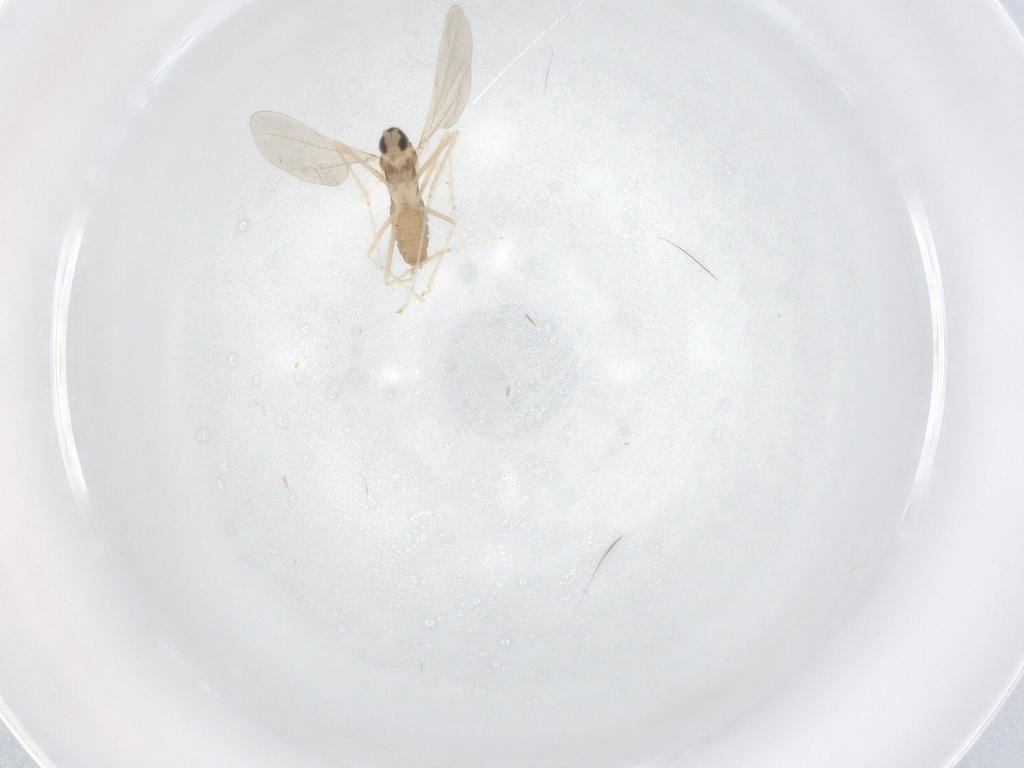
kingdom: Animalia
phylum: Arthropoda
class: Insecta
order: Diptera
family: Cecidomyiidae
